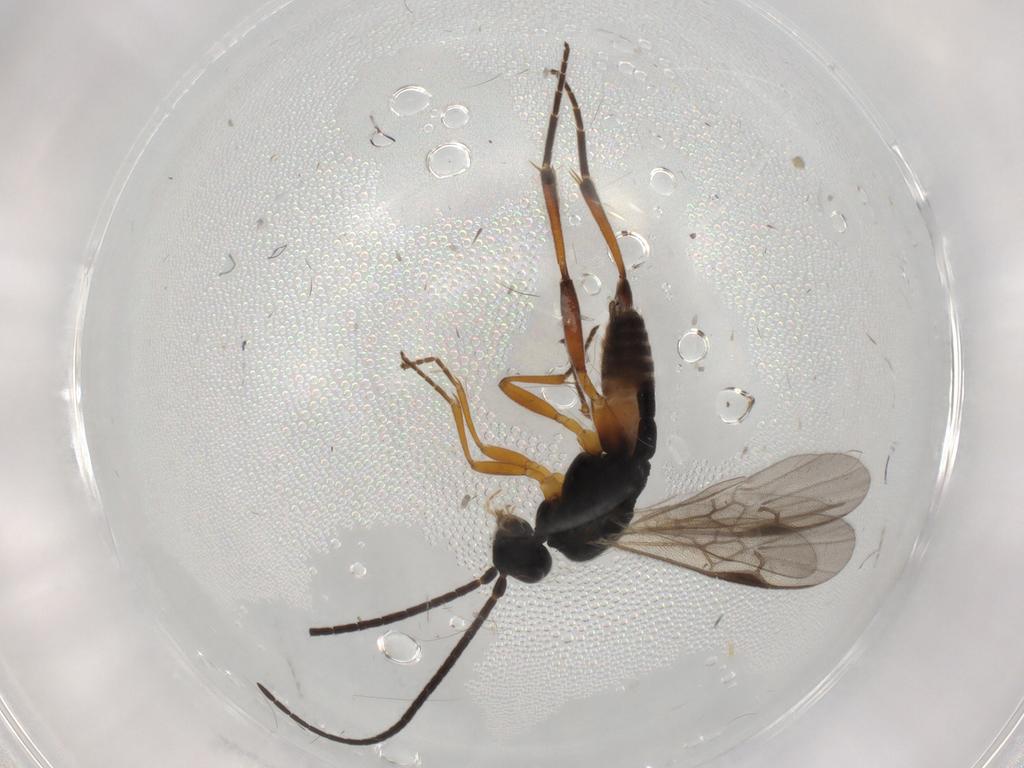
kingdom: Animalia
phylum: Arthropoda
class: Insecta
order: Hymenoptera
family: Braconidae
